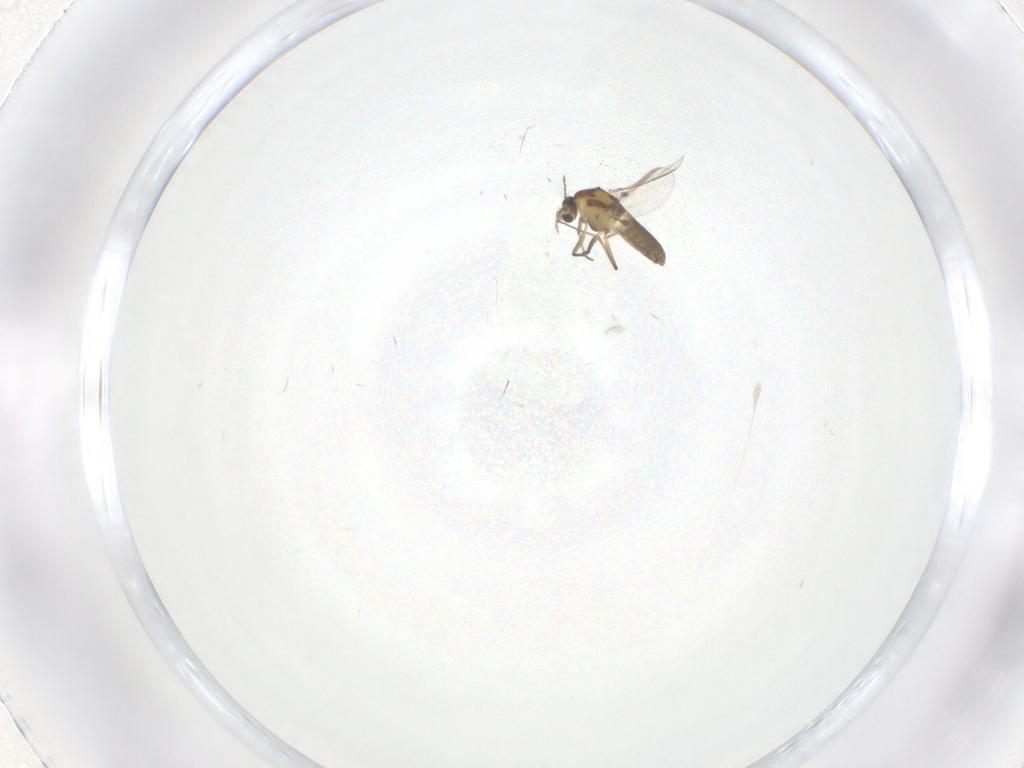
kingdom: Animalia
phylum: Arthropoda
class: Insecta
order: Diptera
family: Chironomidae
